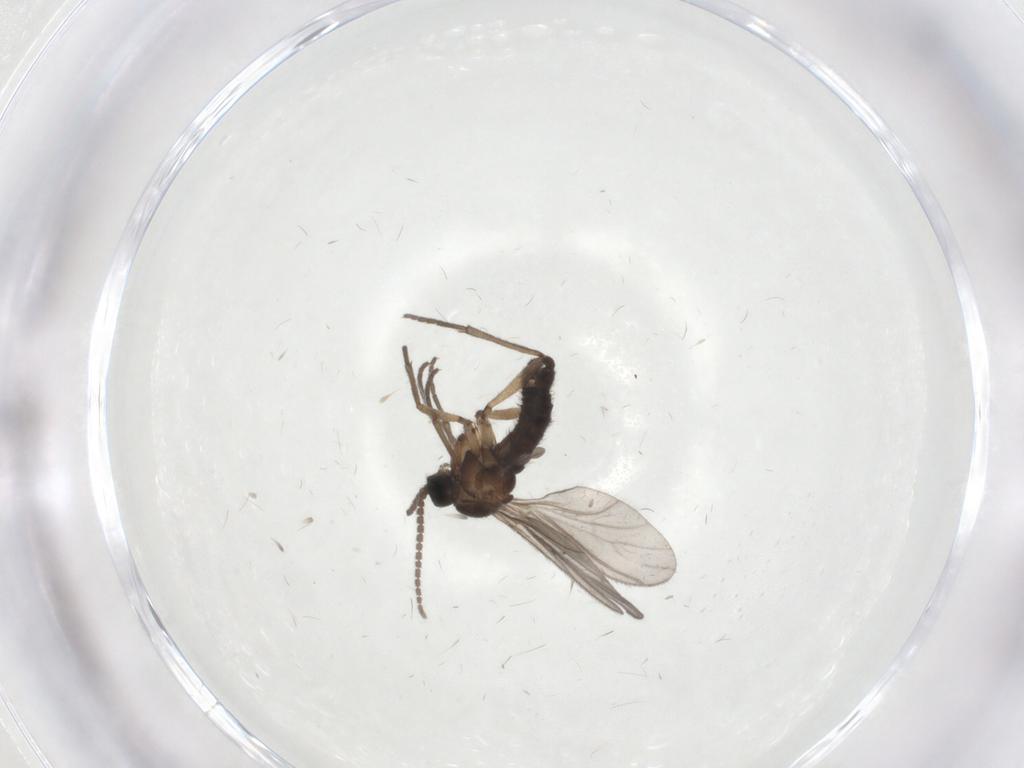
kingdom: Animalia
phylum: Arthropoda
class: Insecta
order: Diptera
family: Sciaridae
